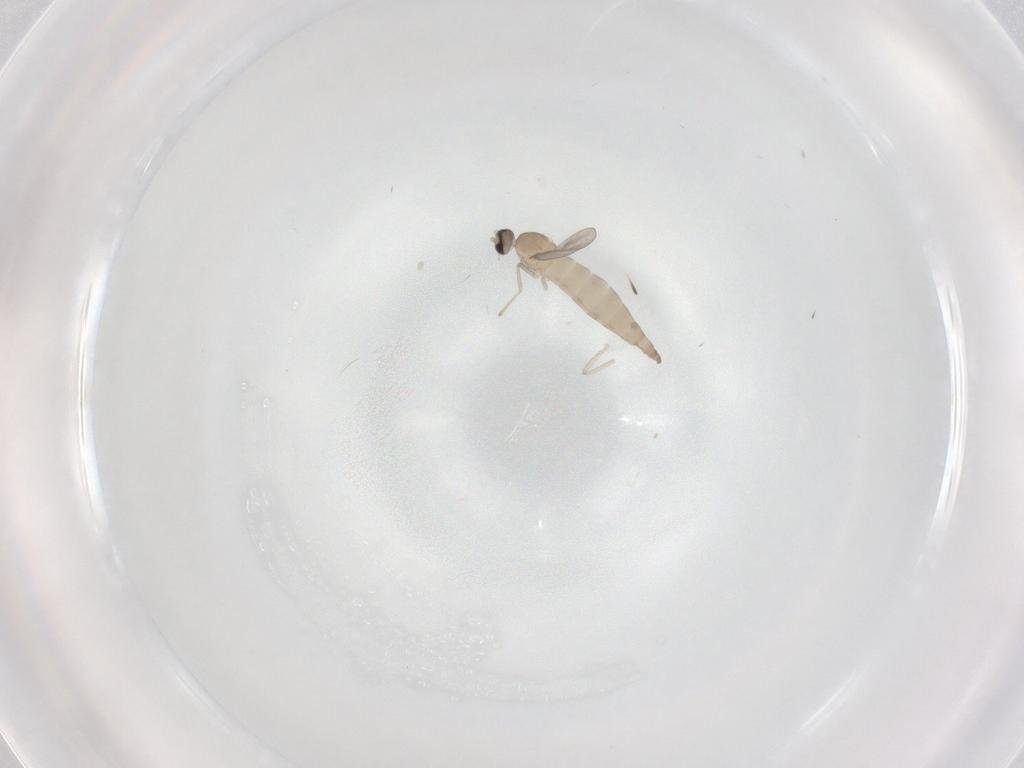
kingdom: Animalia
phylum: Arthropoda
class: Insecta
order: Diptera
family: Cecidomyiidae
